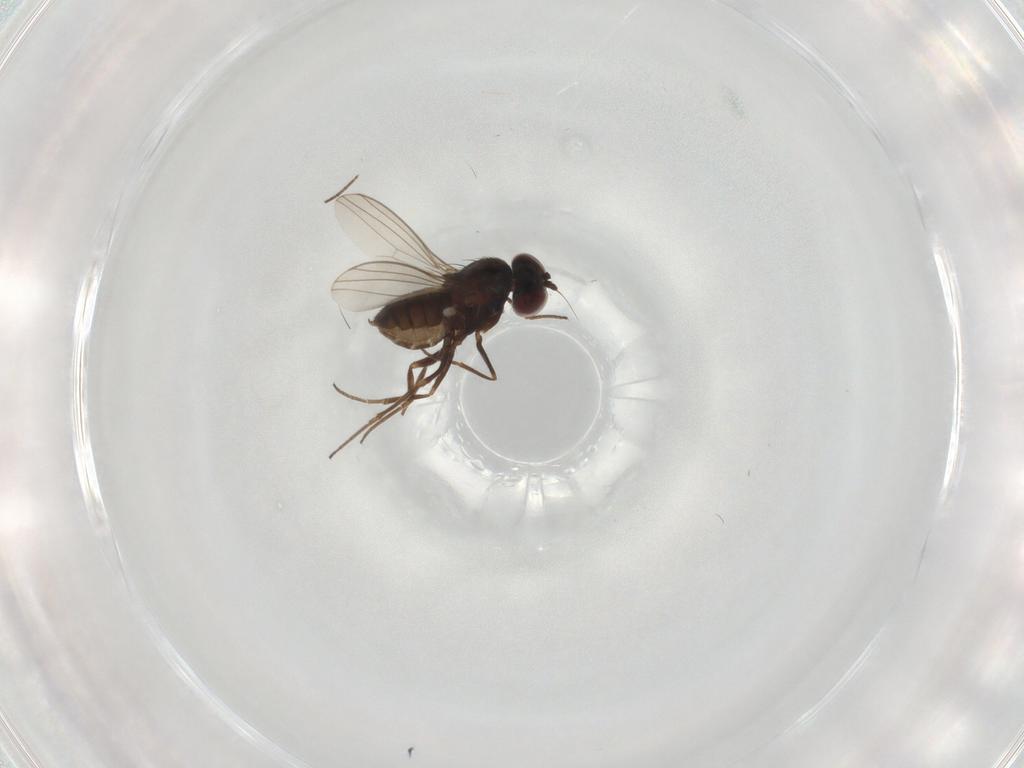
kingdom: Animalia
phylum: Arthropoda
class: Insecta
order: Diptera
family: Dolichopodidae
